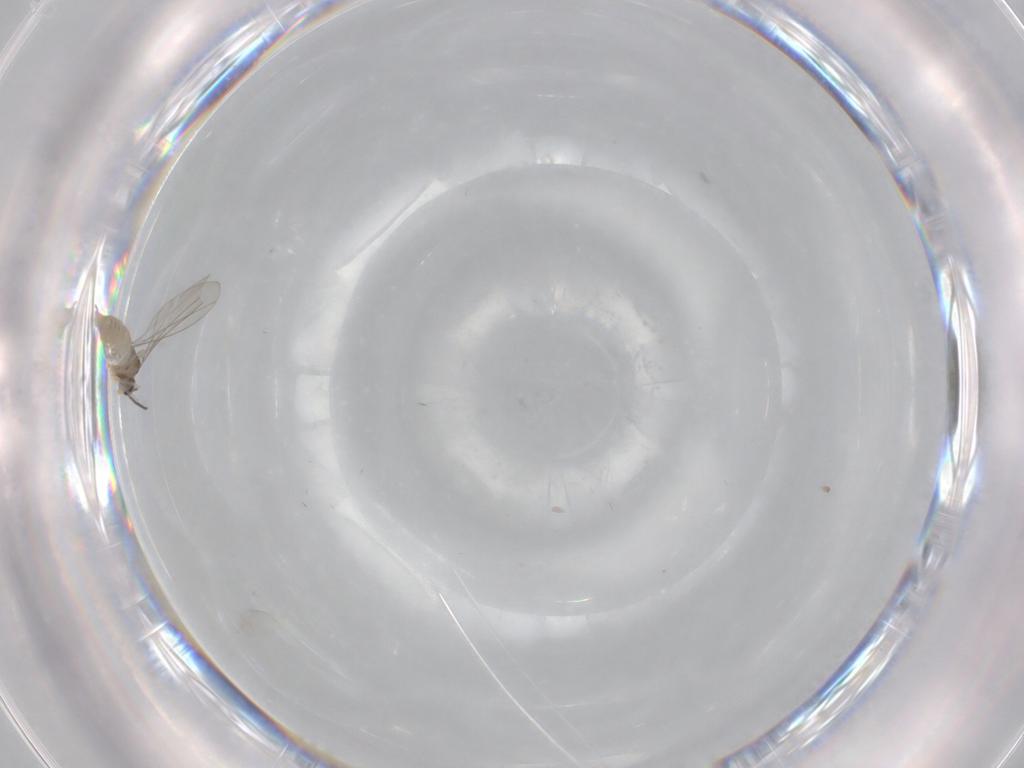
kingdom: Animalia
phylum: Arthropoda
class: Insecta
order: Diptera
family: Cecidomyiidae
